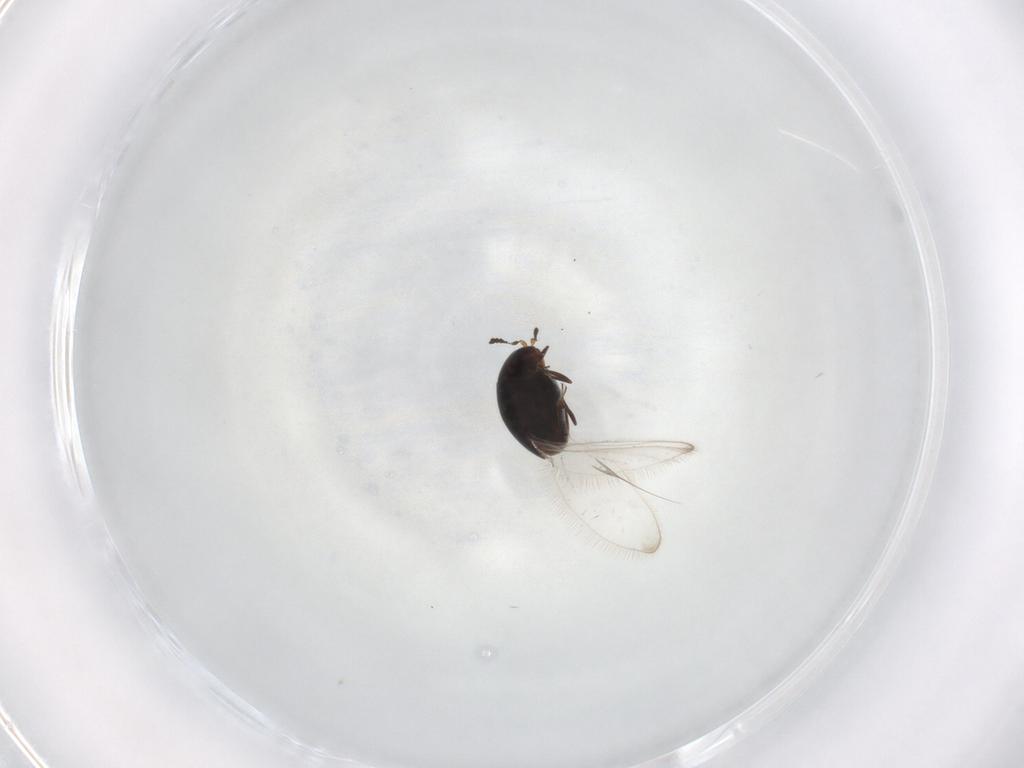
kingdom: Animalia
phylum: Arthropoda
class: Insecta
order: Coleoptera
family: Corylophidae
